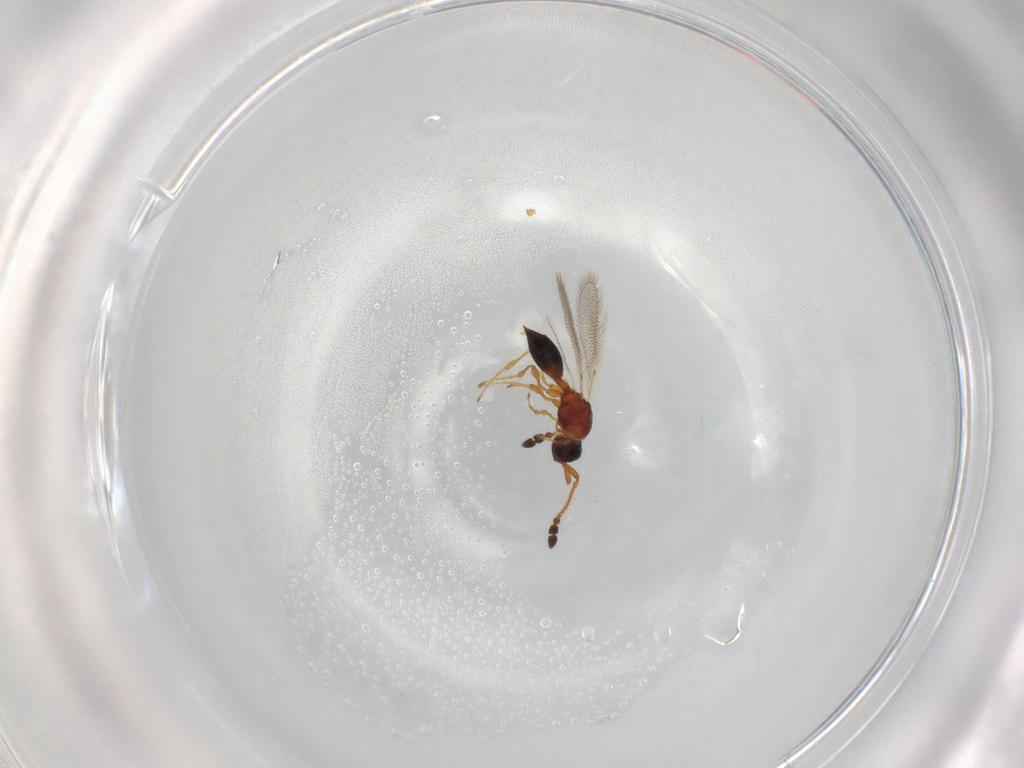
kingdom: Animalia
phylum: Arthropoda
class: Insecta
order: Hymenoptera
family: Diapriidae
